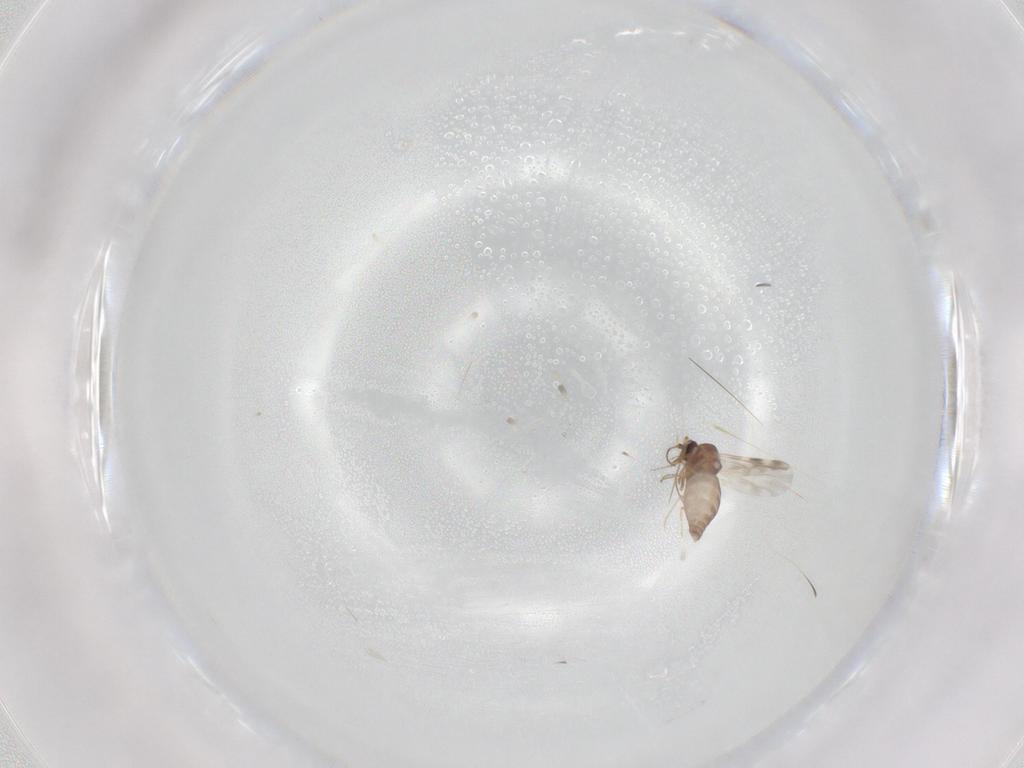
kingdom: Animalia
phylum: Arthropoda
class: Insecta
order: Diptera
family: Ceratopogonidae
